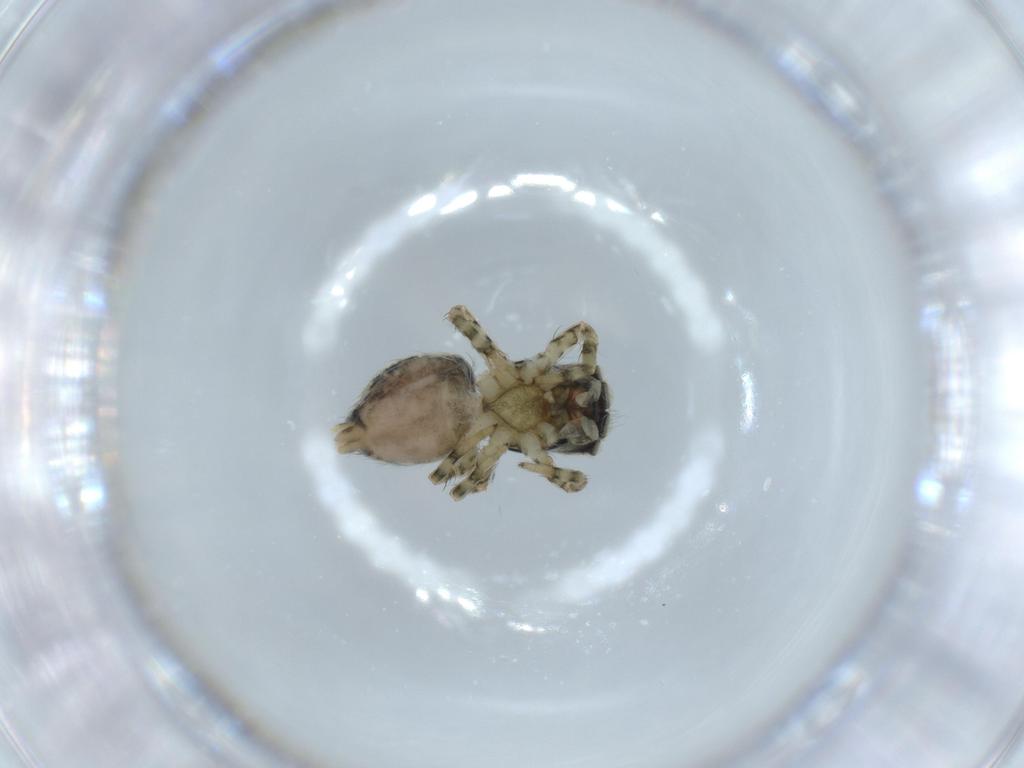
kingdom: Animalia
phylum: Arthropoda
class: Arachnida
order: Araneae
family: Salticidae
